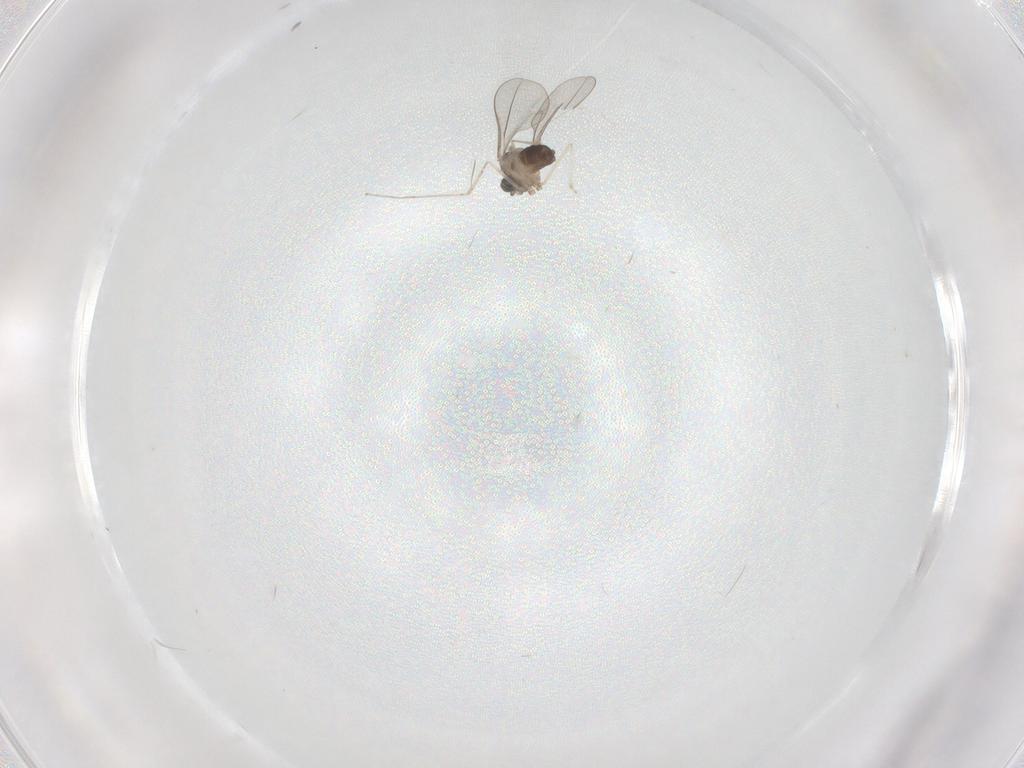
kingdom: Animalia
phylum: Arthropoda
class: Insecta
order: Diptera
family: Cecidomyiidae
